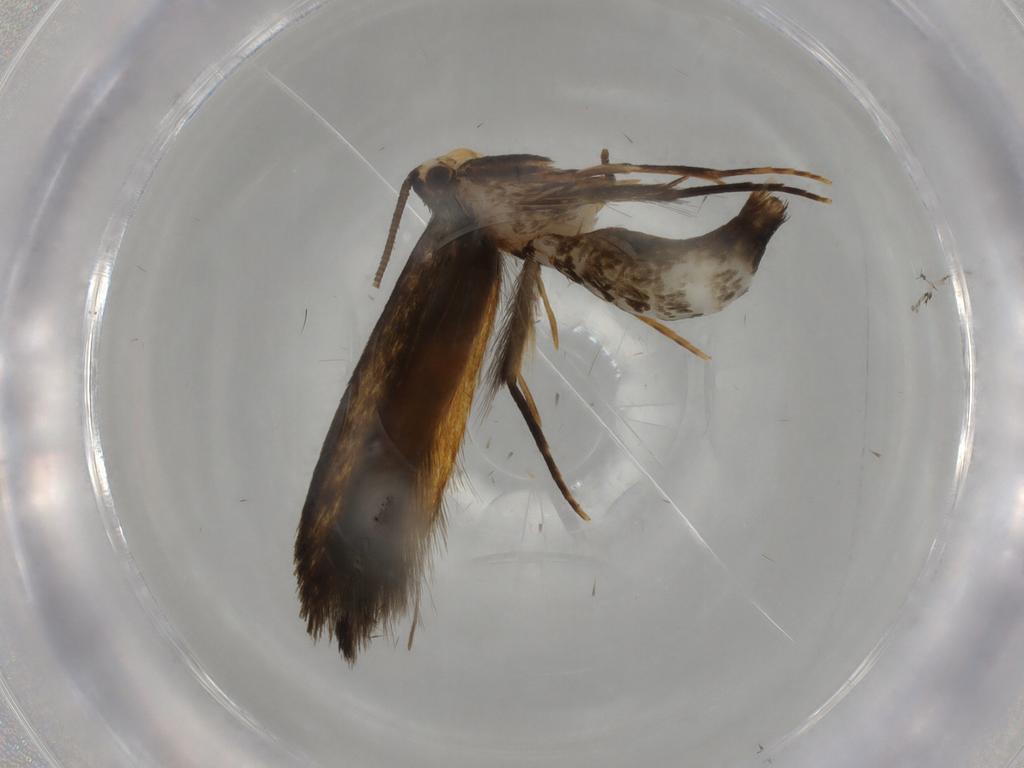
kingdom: Animalia
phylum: Arthropoda
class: Insecta
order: Lepidoptera
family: Tineidae
